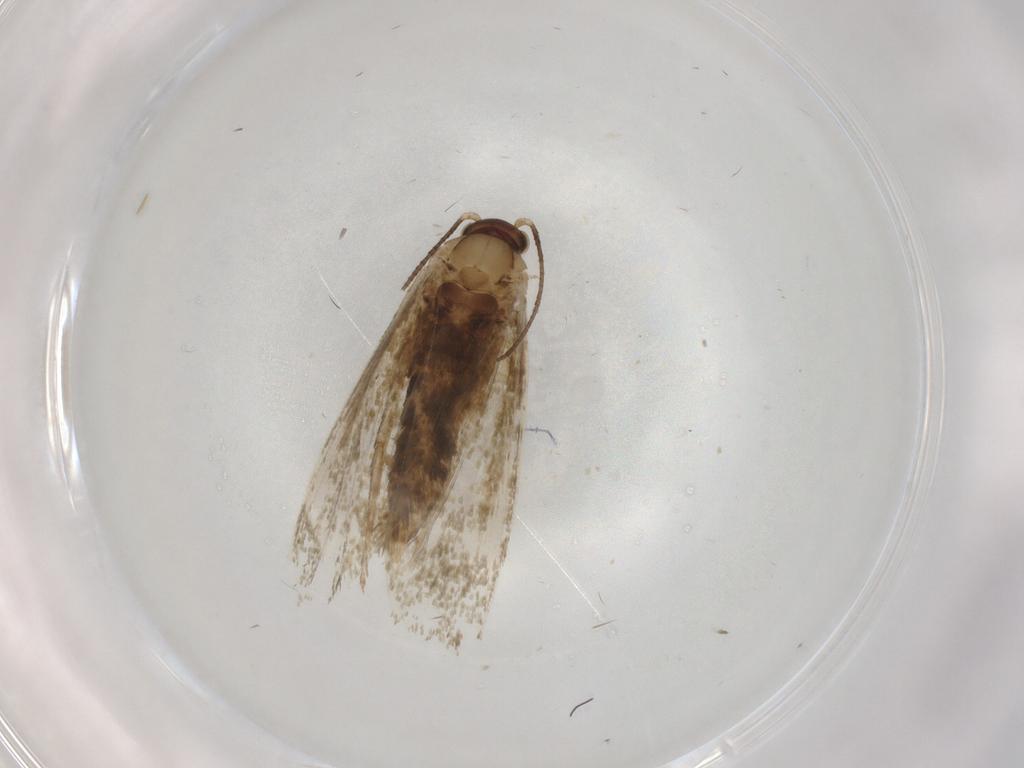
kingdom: Animalia
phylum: Arthropoda
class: Insecta
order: Lepidoptera
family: Tineidae
